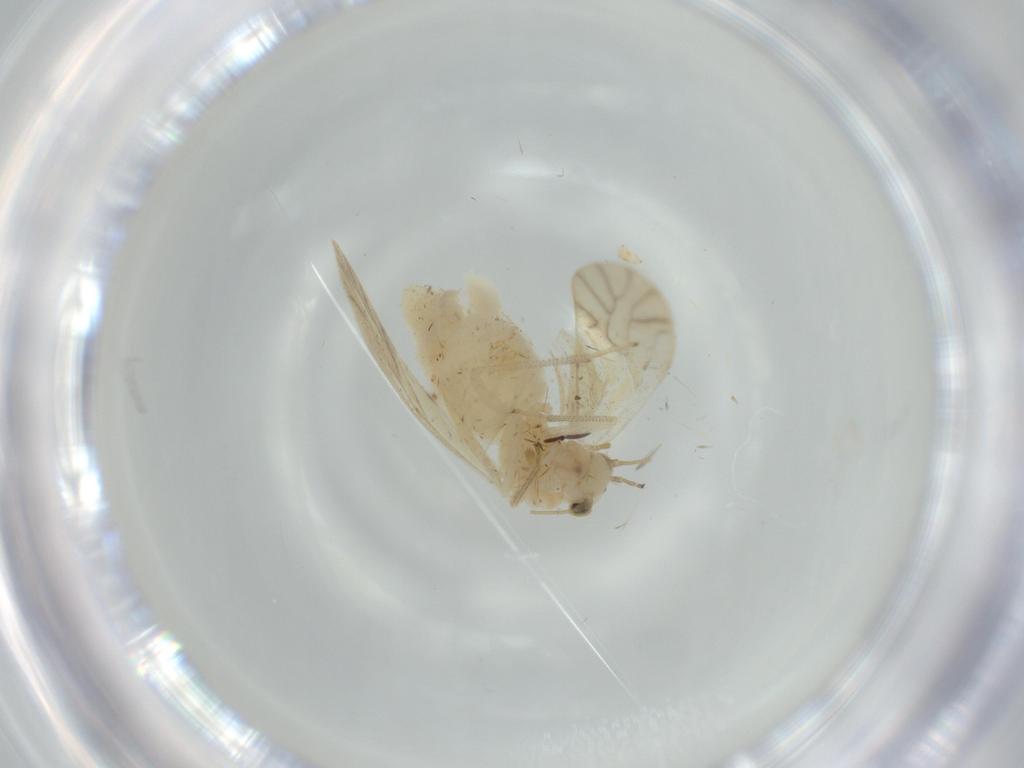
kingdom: Animalia
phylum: Arthropoda
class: Insecta
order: Psocodea
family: Caeciliusidae
